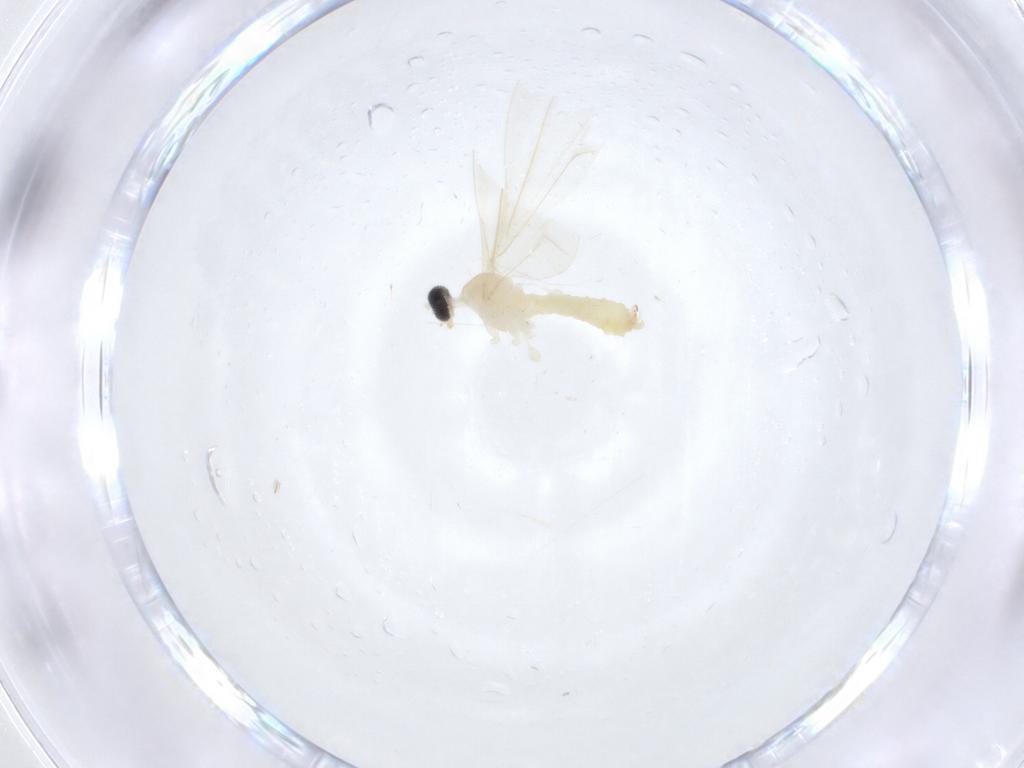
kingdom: Animalia
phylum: Arthropoda
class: Insecta
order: Diptera
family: Cecidomyiidae
